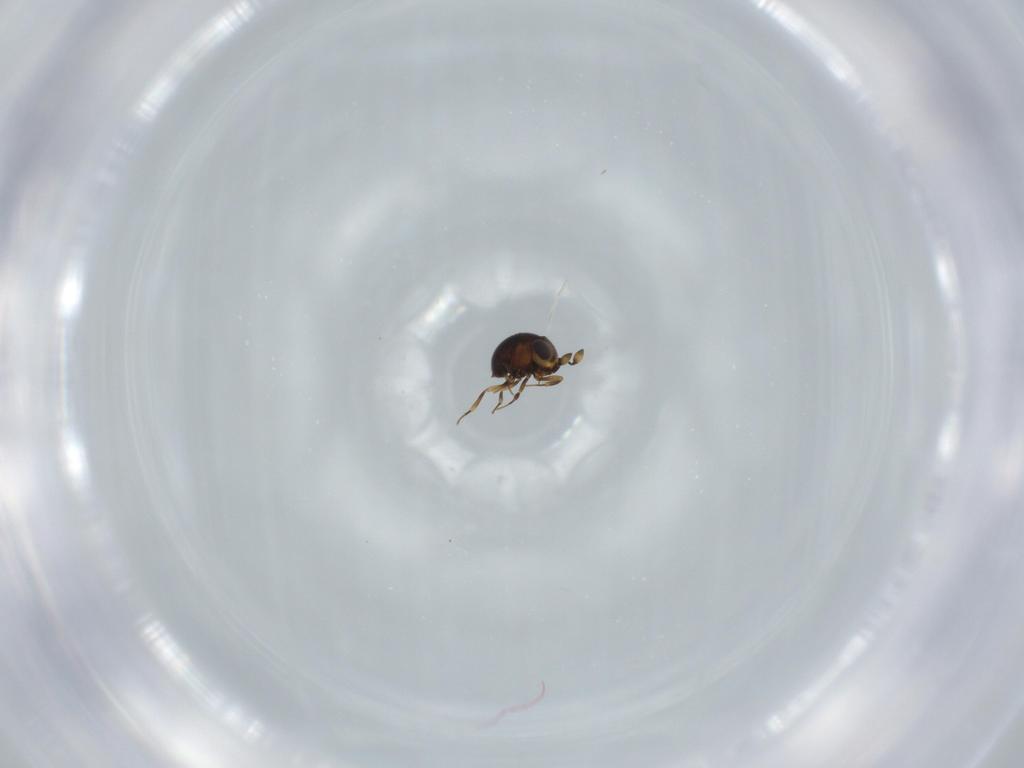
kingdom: Animalia
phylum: Arthropoda
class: Insecta
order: Hymenoptera
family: Scelionidae
